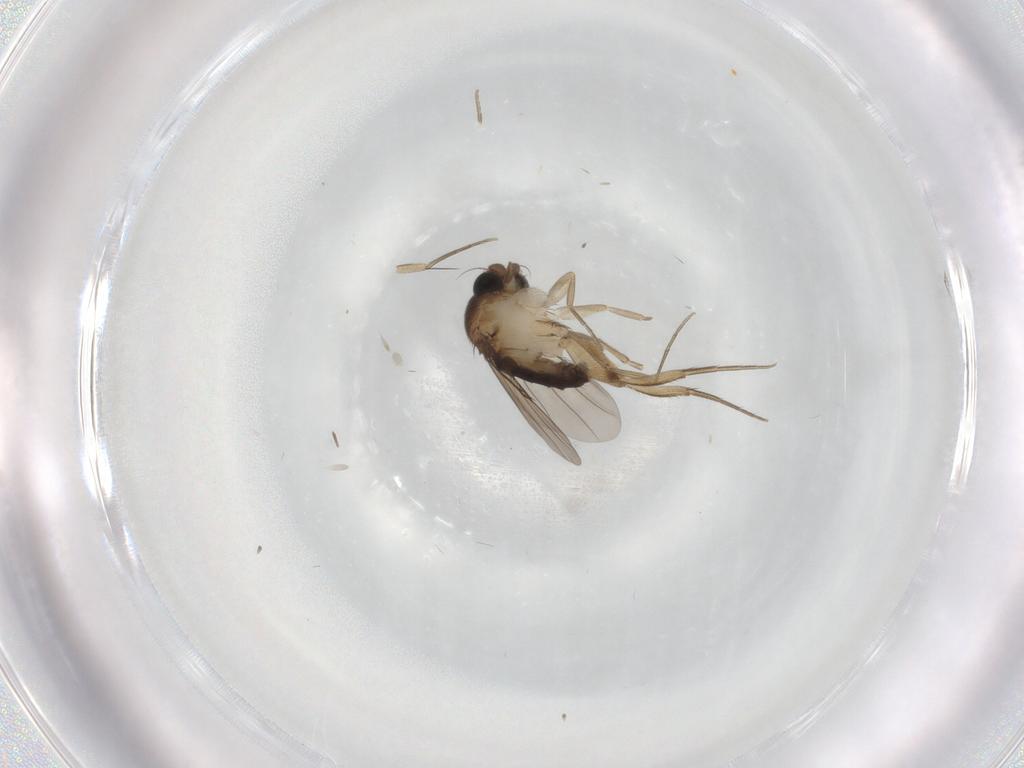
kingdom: Animalia
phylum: Arthropoda
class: Insecta
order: Diptera
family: Phoridae
